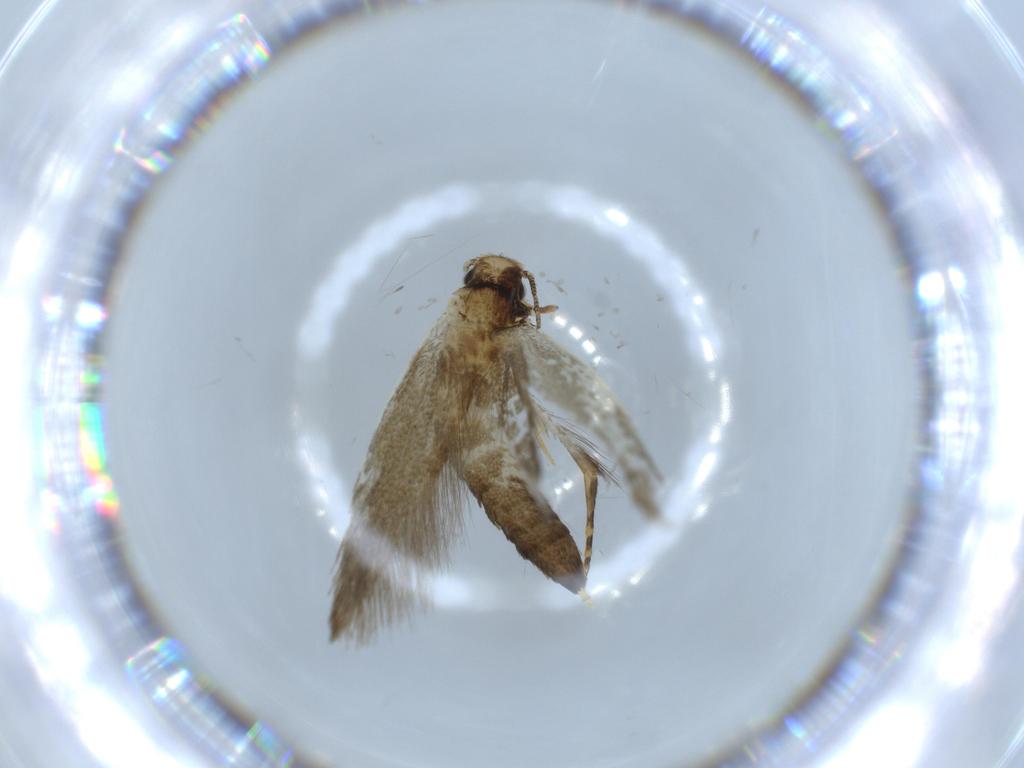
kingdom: Animalia
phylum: Arthropoda
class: Insecta
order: Lepidoptera
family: Tineidae
